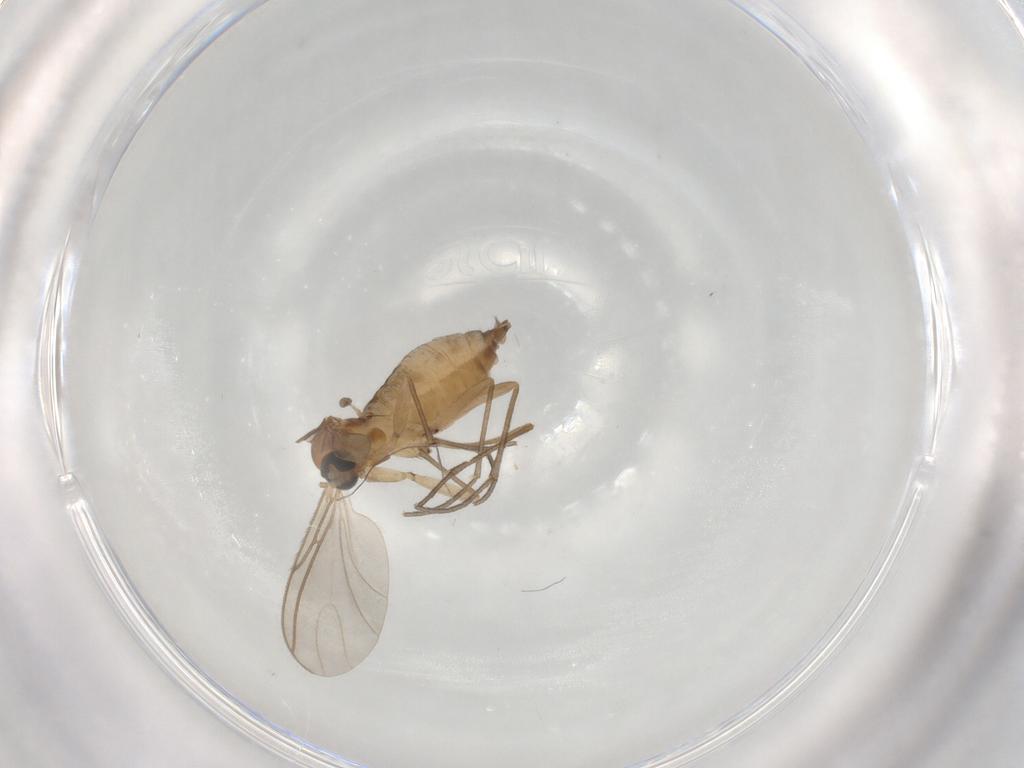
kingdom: Animalia
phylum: Arthropoda
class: Insecta
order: Diptera
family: Sciaridae
